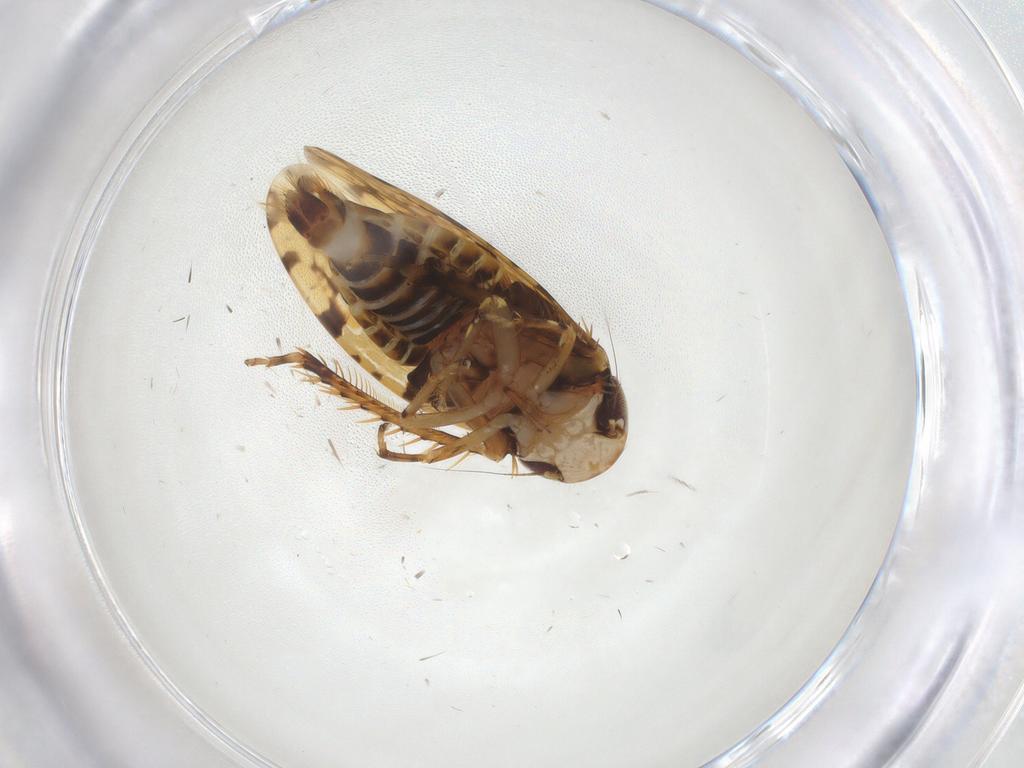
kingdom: Animalia
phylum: Arthropoda
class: Insecta
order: Hemiptera
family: Cicadellidae
